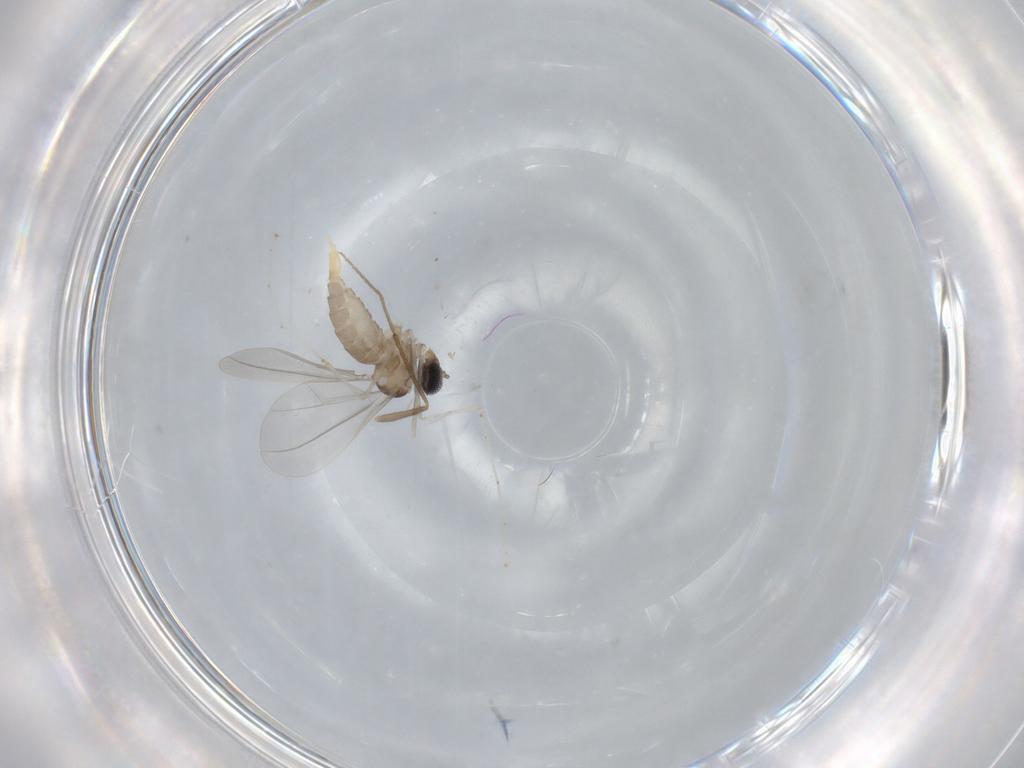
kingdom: Animalia
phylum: Arthropoda
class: Insecta
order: Diptera
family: Cecidomyiidae
